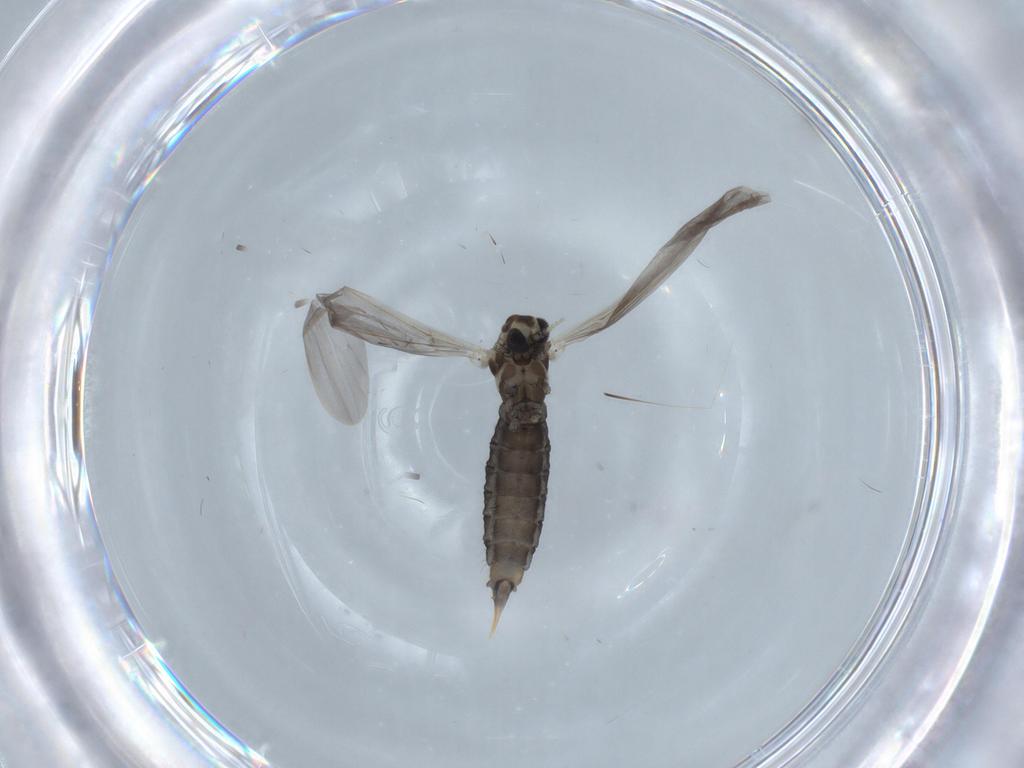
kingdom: Animalia
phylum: Arthropoda
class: Insecta
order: Diptera
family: Limoniidae
